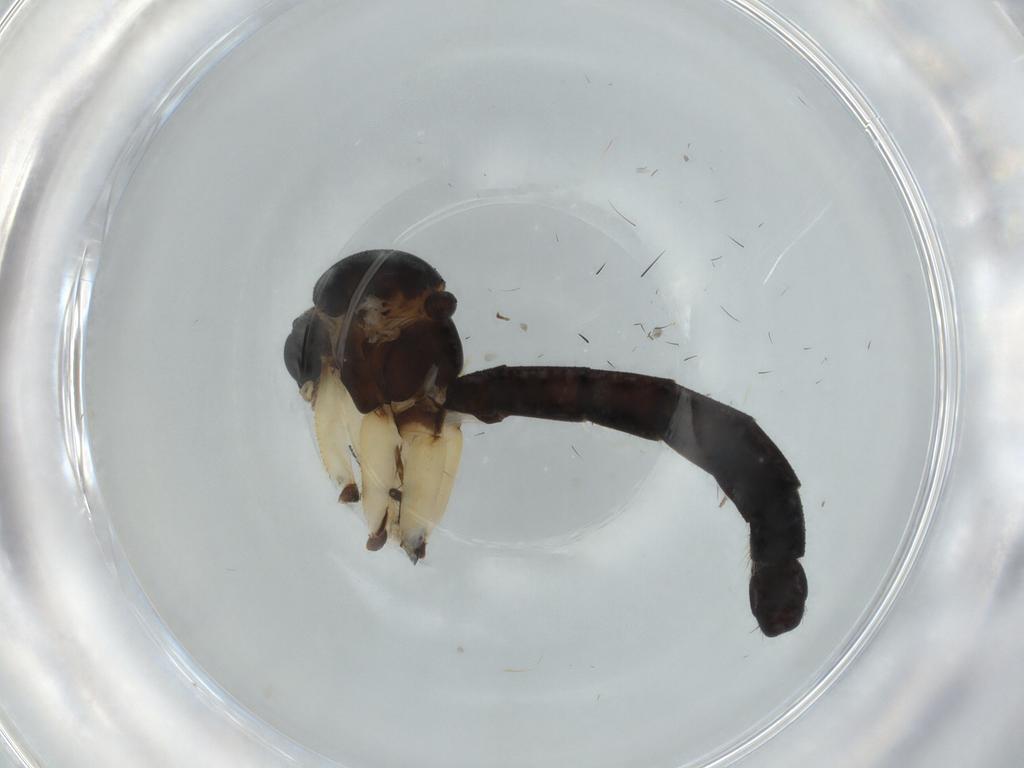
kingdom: Animalia
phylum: Arthropoda
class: Insecta
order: Diptera
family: Mycetophilidae
